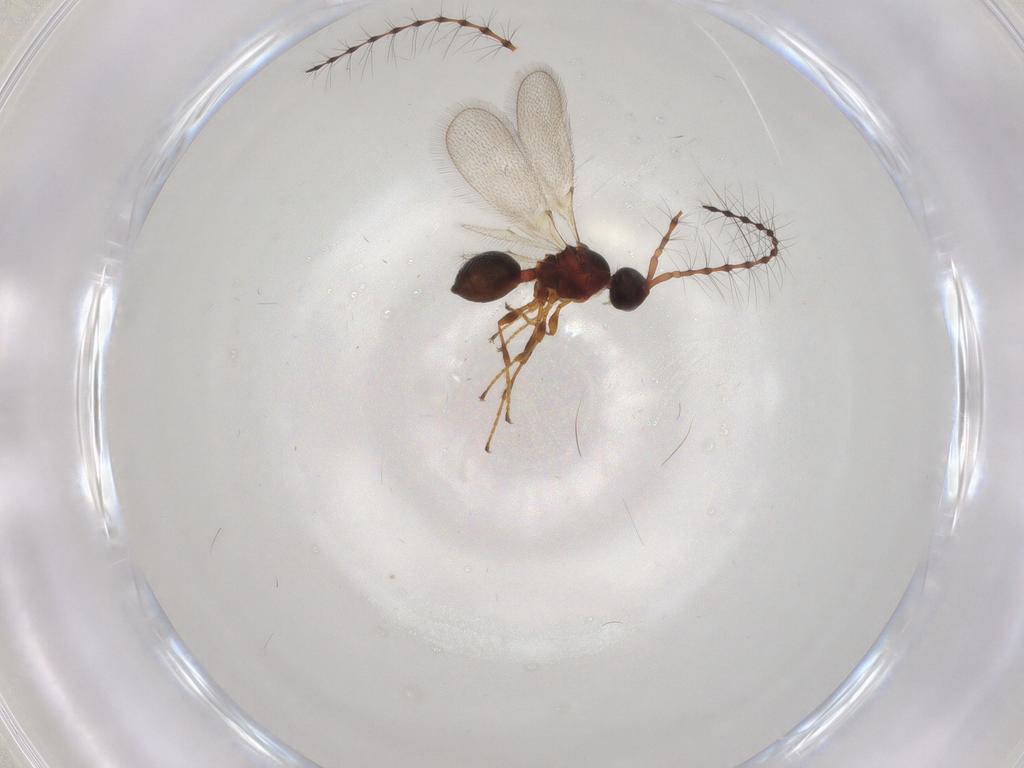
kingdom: Animalia
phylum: Arthropoda
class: Insecta
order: Hymenoptera
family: Diapriidae
